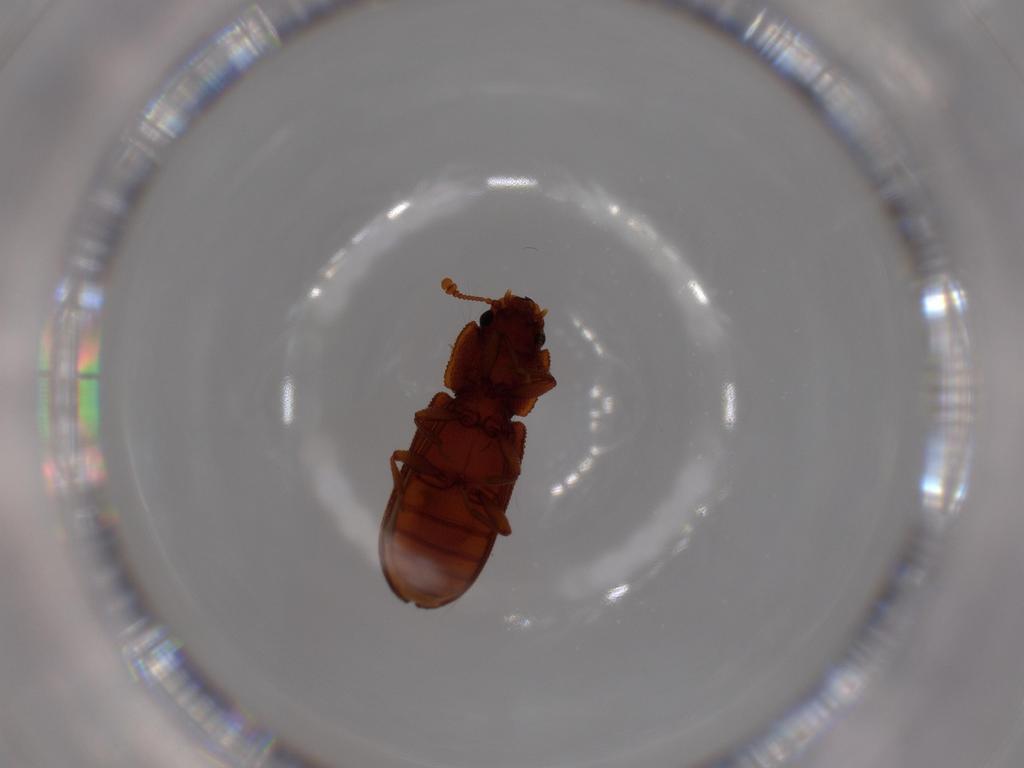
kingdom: Animalia
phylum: Arthropoda
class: Insecta
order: Coleoptera
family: Zopheridae
